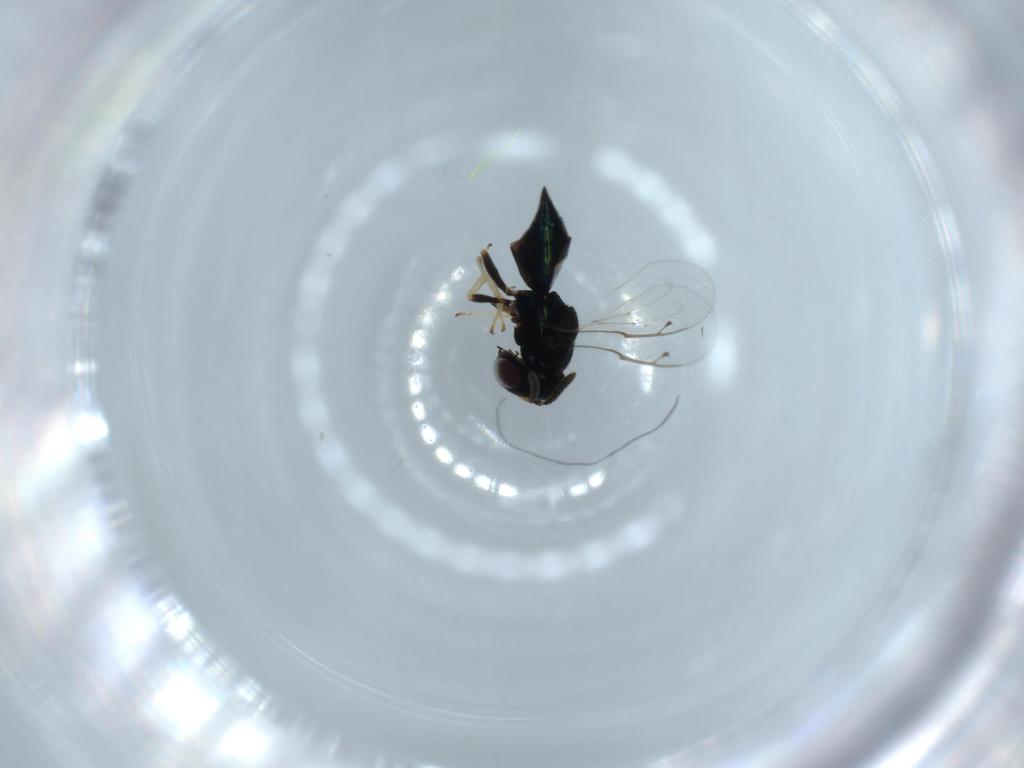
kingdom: Animalia
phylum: Arthropoda
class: Insecta
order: Hymenoptera
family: Pteromalidae
